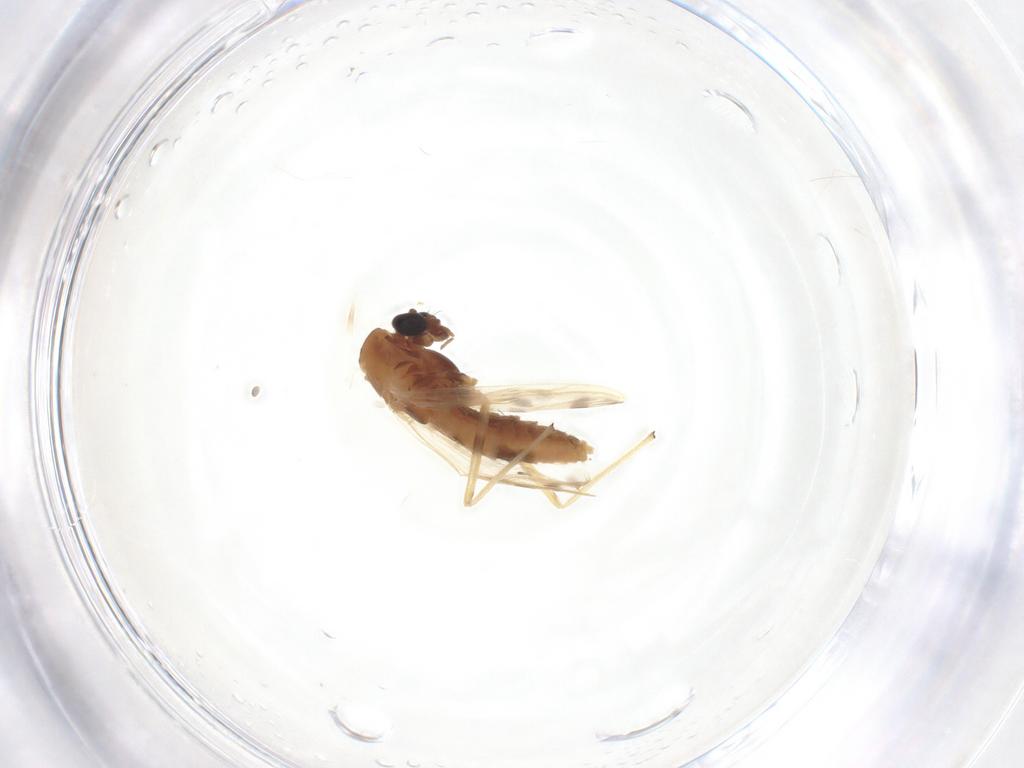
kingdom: Animalia
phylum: Arthropoda
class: Insecta
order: Diptera
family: Chironomidae
